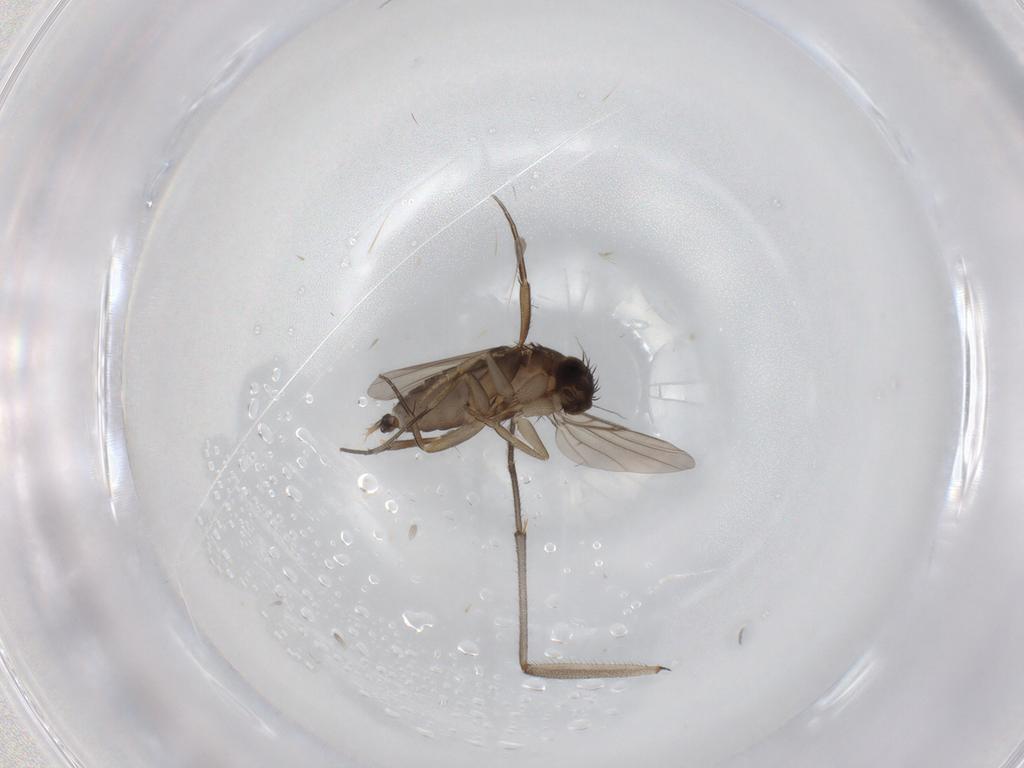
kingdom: Animalia
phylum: Arthropoda
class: Insecta
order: Diptera
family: Phoridae
